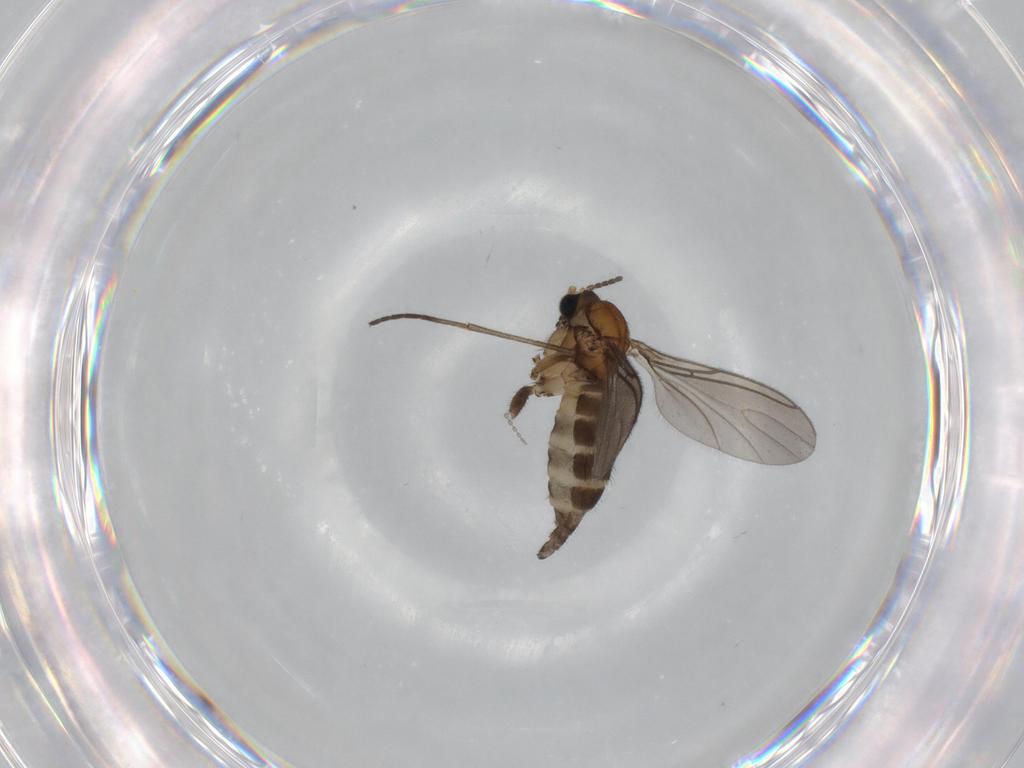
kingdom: Animalia
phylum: Arthropoda
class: Insecta
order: Diptera
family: Sciaridae
